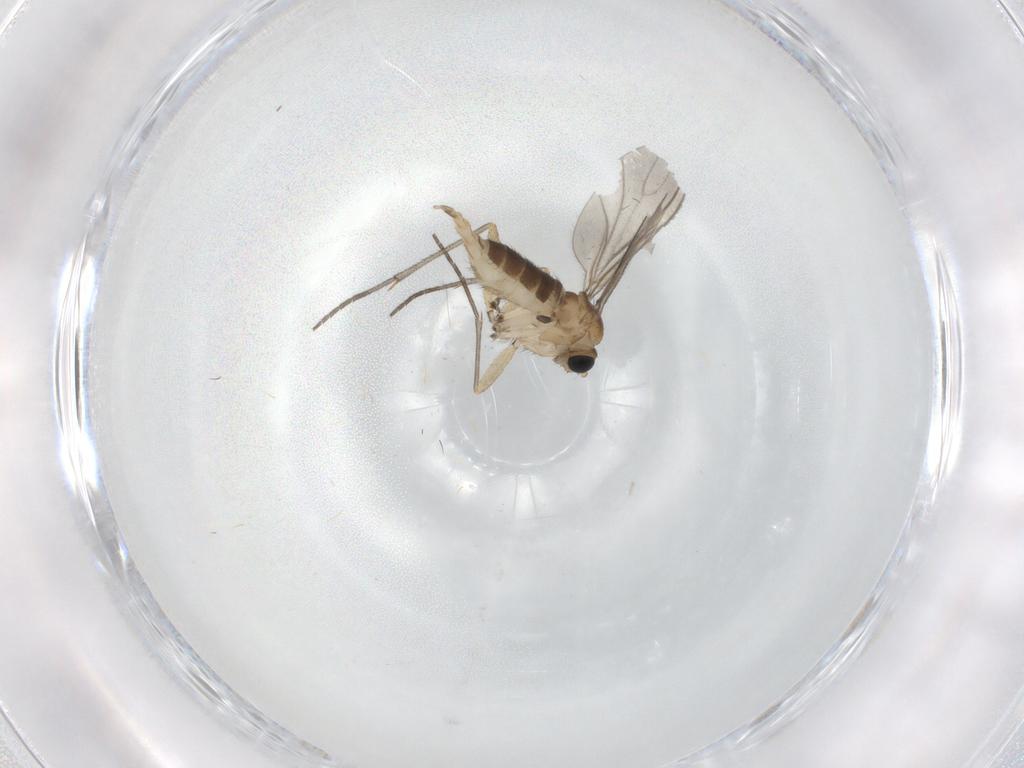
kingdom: Animalia
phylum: Arthropoda
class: Insecta
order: Diptera
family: Sciaridae
